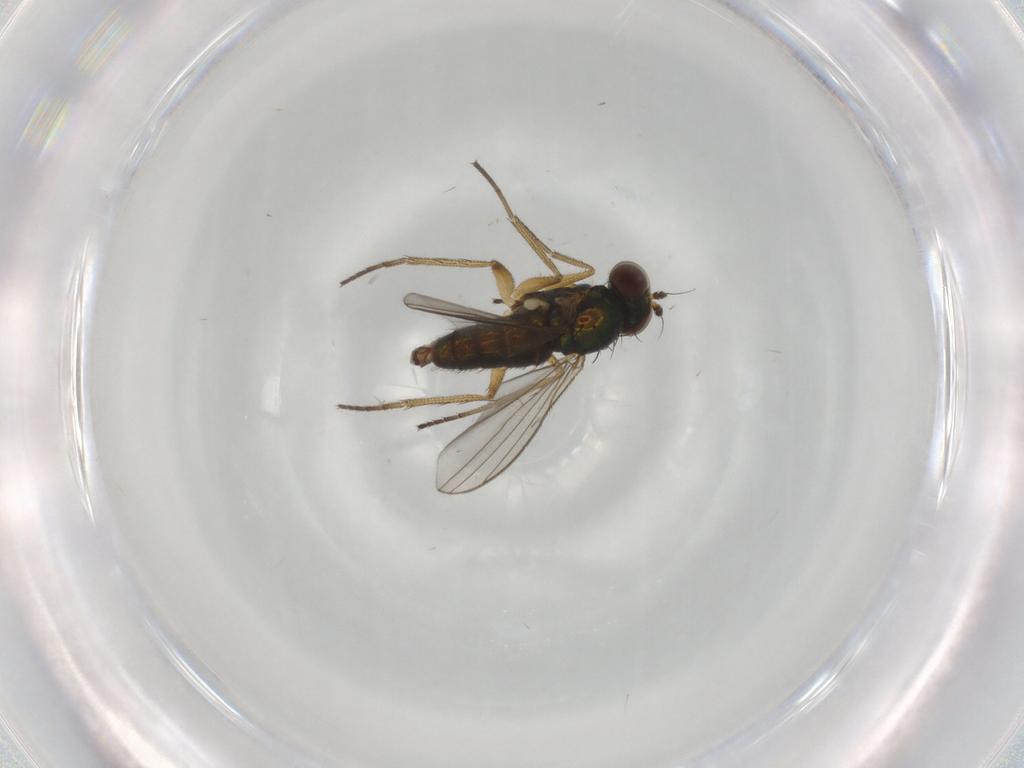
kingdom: Animalia
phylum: Arthropoda
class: Insecta
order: Diptera
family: Dolichopodidae
